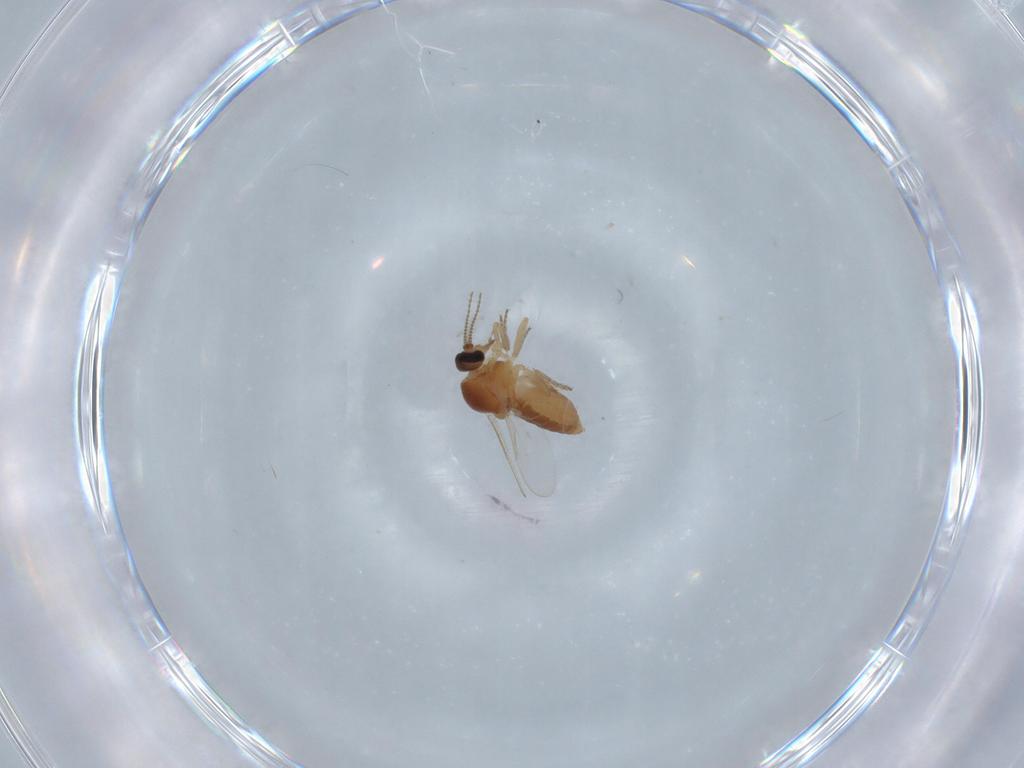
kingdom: Animalia
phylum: Arthropoda
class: Insecta
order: Diptera
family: Ceratopogonidae
